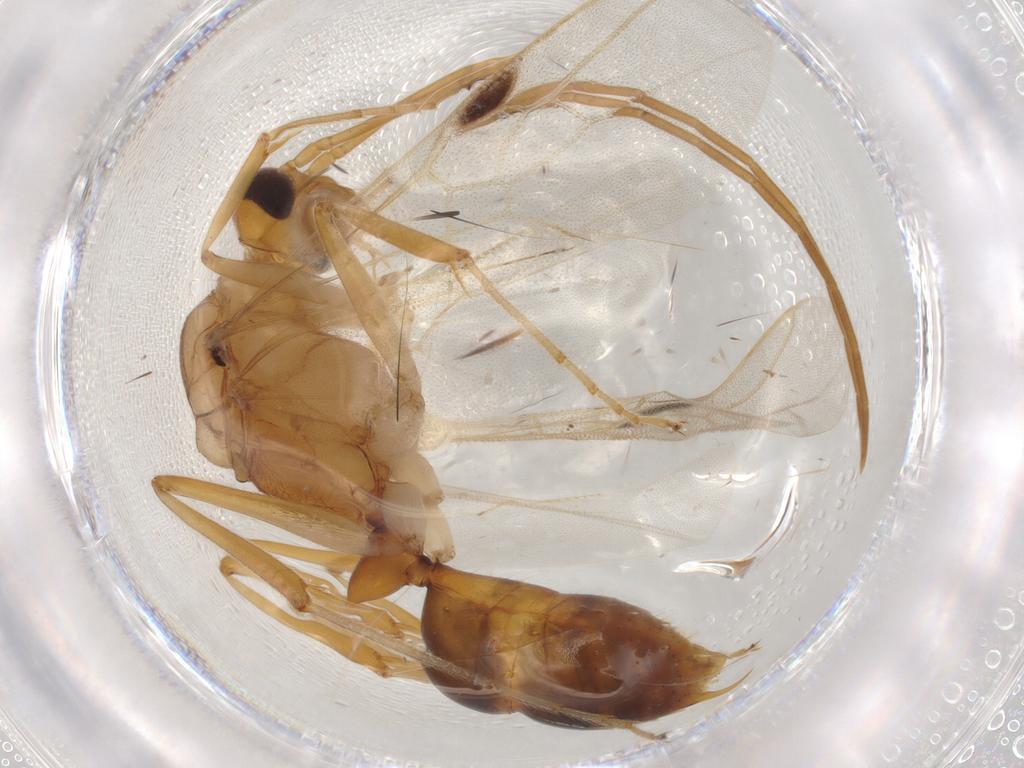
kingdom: Animalia
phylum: Arthropoda
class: Insecta
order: Hymenoptera
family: Formicidae
